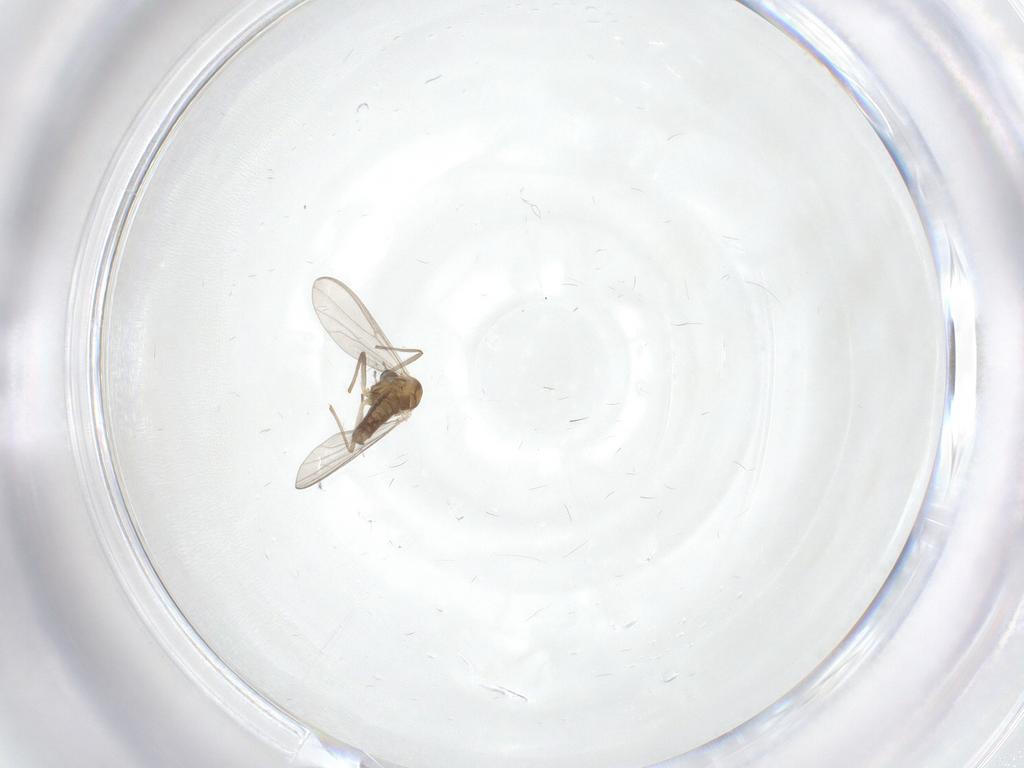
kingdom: Animalia
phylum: Arthropoda
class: Insecta
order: Diptera
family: Chironomidae
